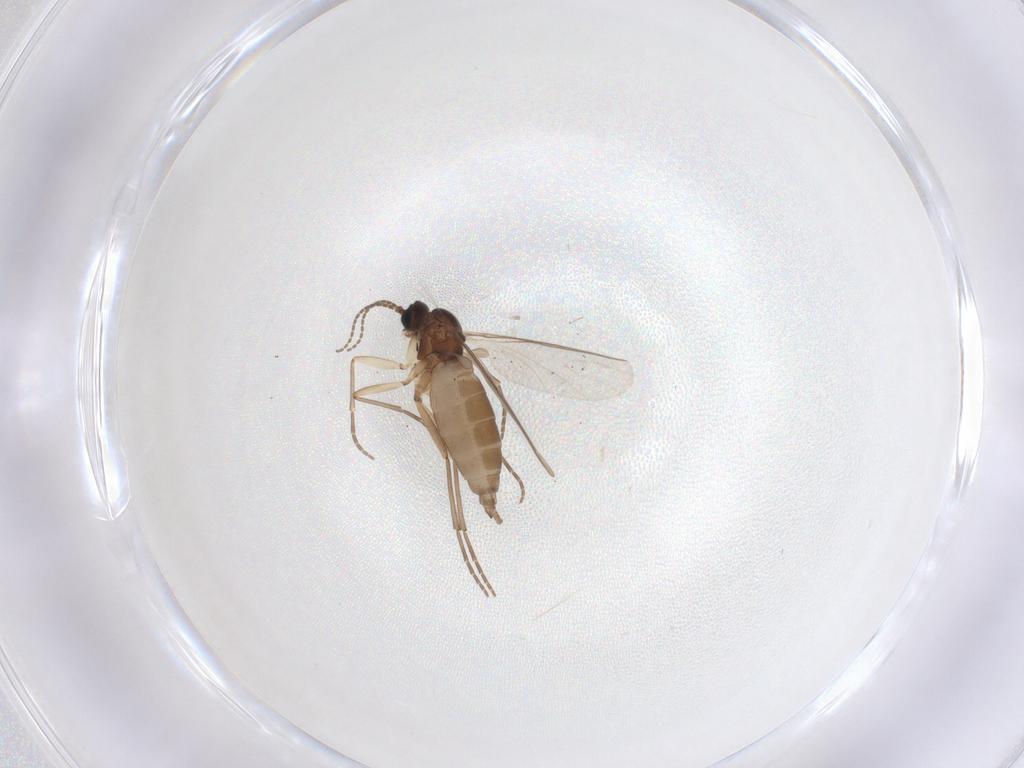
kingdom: Animalia
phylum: Arthropoda
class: Insecta
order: Diptera
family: Sciaridae
